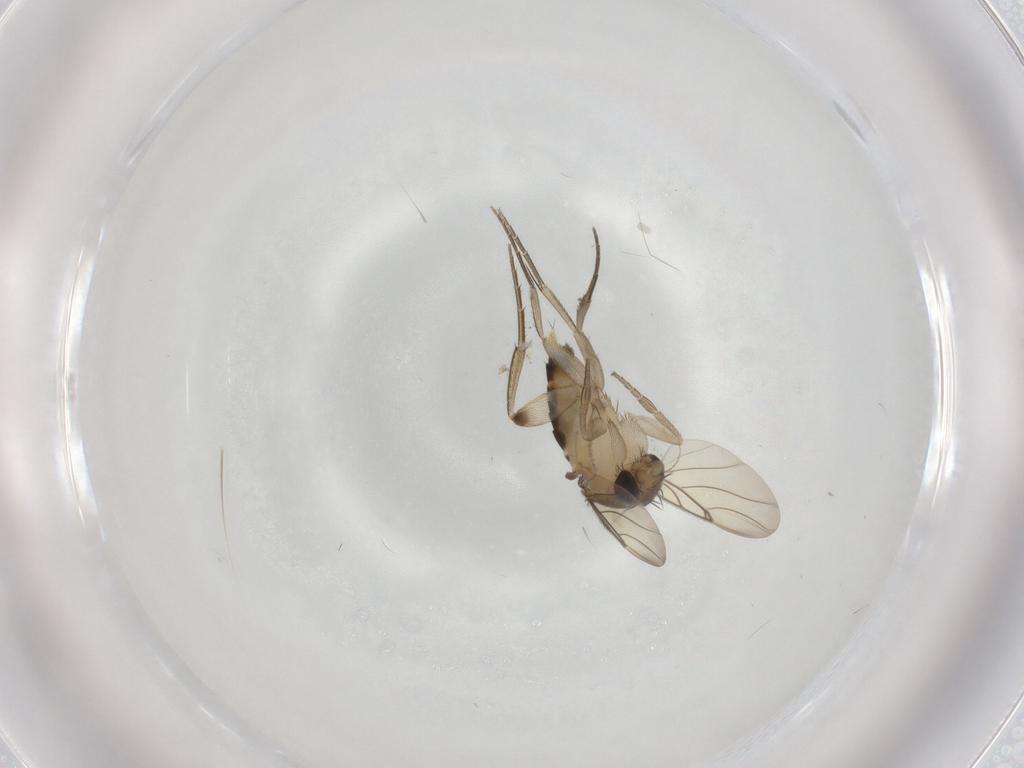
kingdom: Animalia
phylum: Arthropoda
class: Insecta
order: Diptera
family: Phoridae
